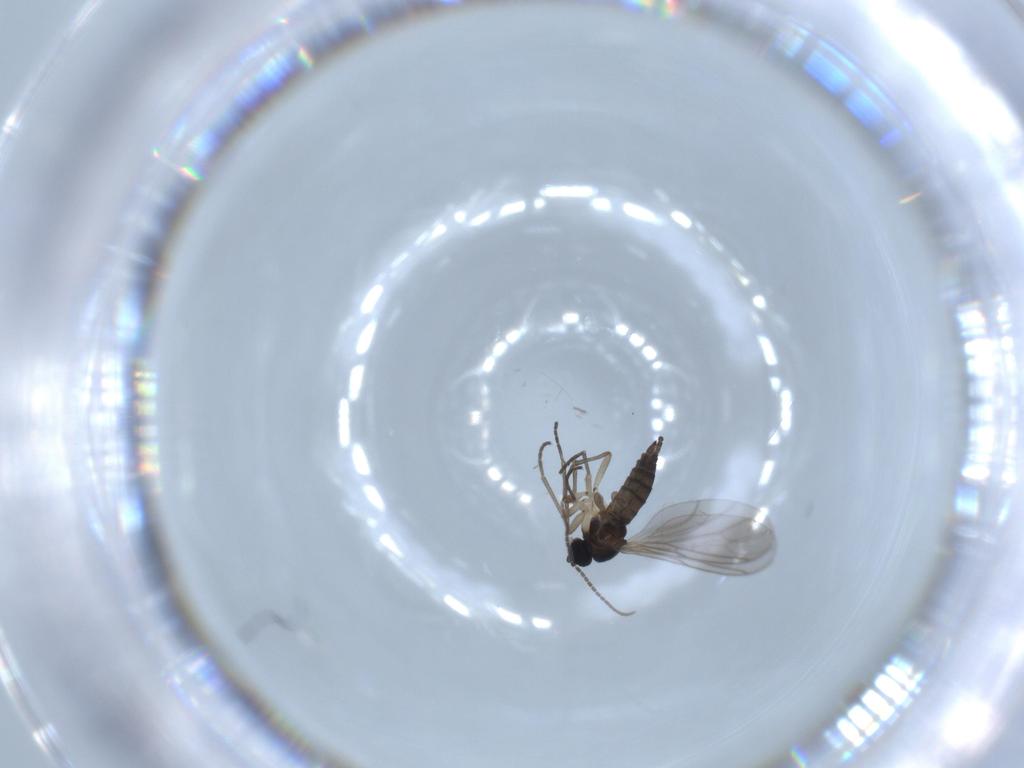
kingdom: Animalia
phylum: Arthropoda
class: Insecta
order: Diptera
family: Sciaridae
